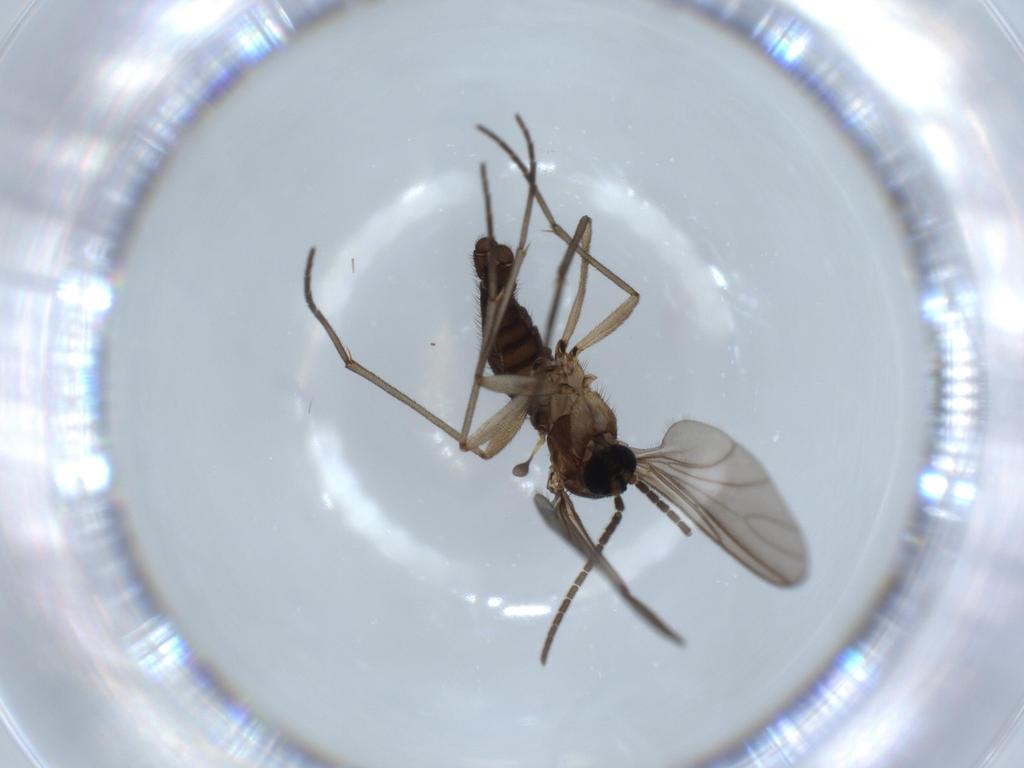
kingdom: Animalia
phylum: Arthropoda
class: Insecta
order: Diptera
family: Sciaridae
